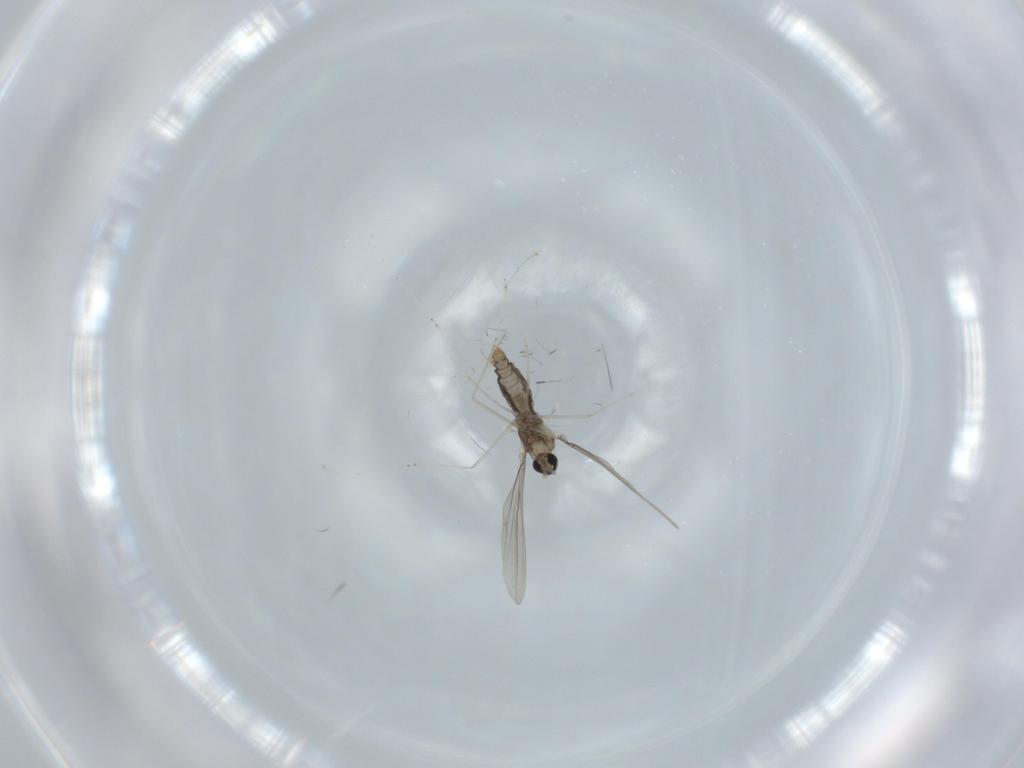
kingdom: Animalia
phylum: Arthropoda
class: Insecta
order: Diptera
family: Cecidomyiidae
